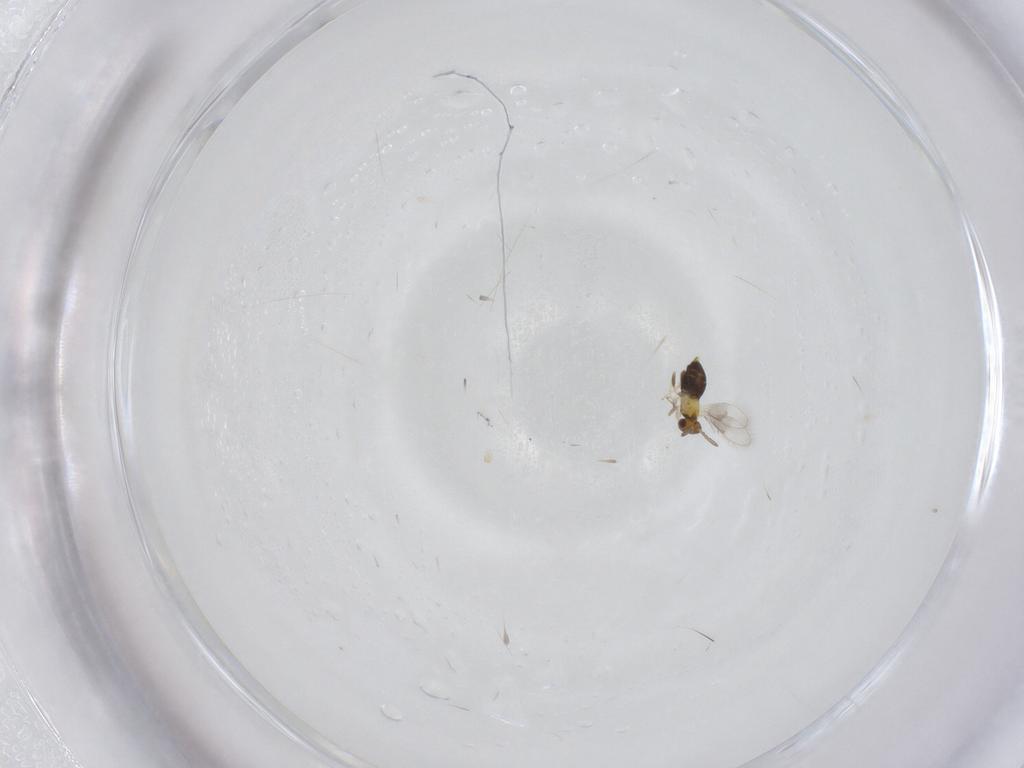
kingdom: Animalia
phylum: Arthropoda
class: Insecta
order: Hymenoptera
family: Aphelinidae
